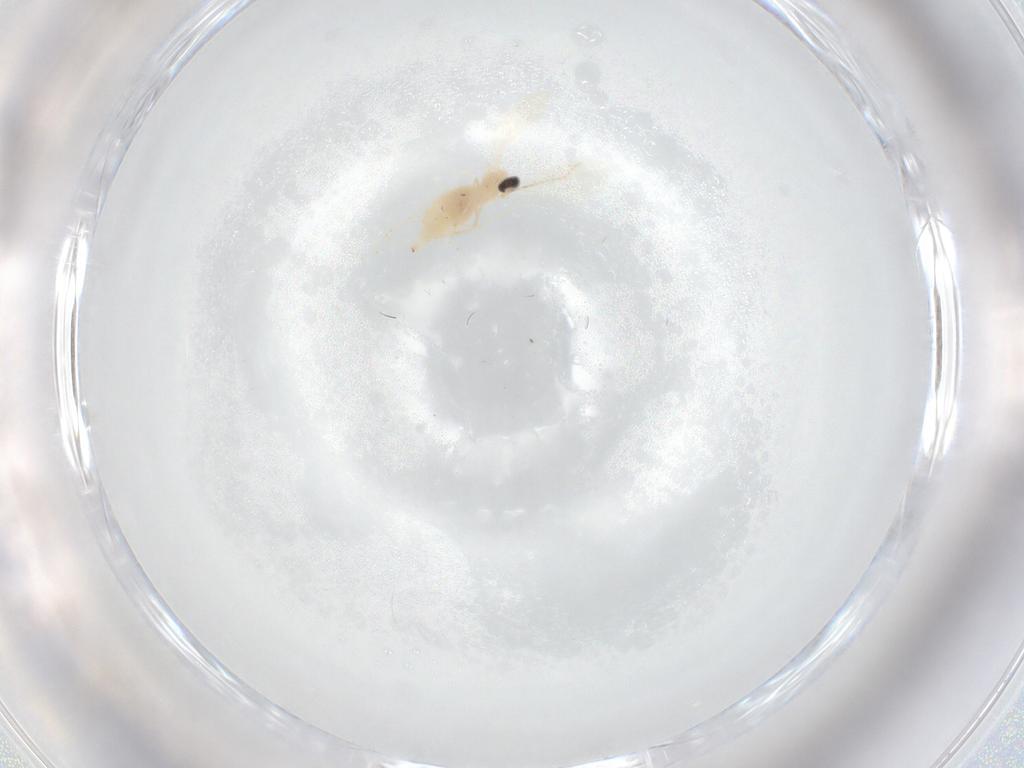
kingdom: Animalia
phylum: Arthropoda
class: Insecta
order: Diptera
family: Cecidomyiidae
